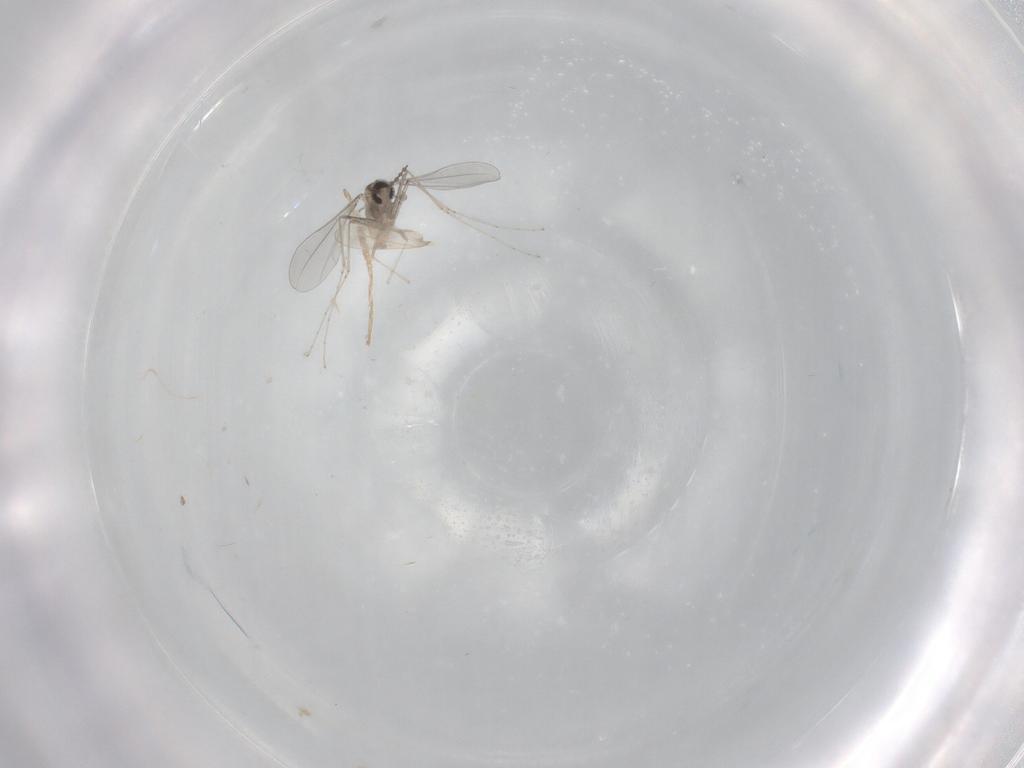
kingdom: Animalia
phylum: Arthropoda
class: Insecta
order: Diptera
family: Cecidomyiidae
